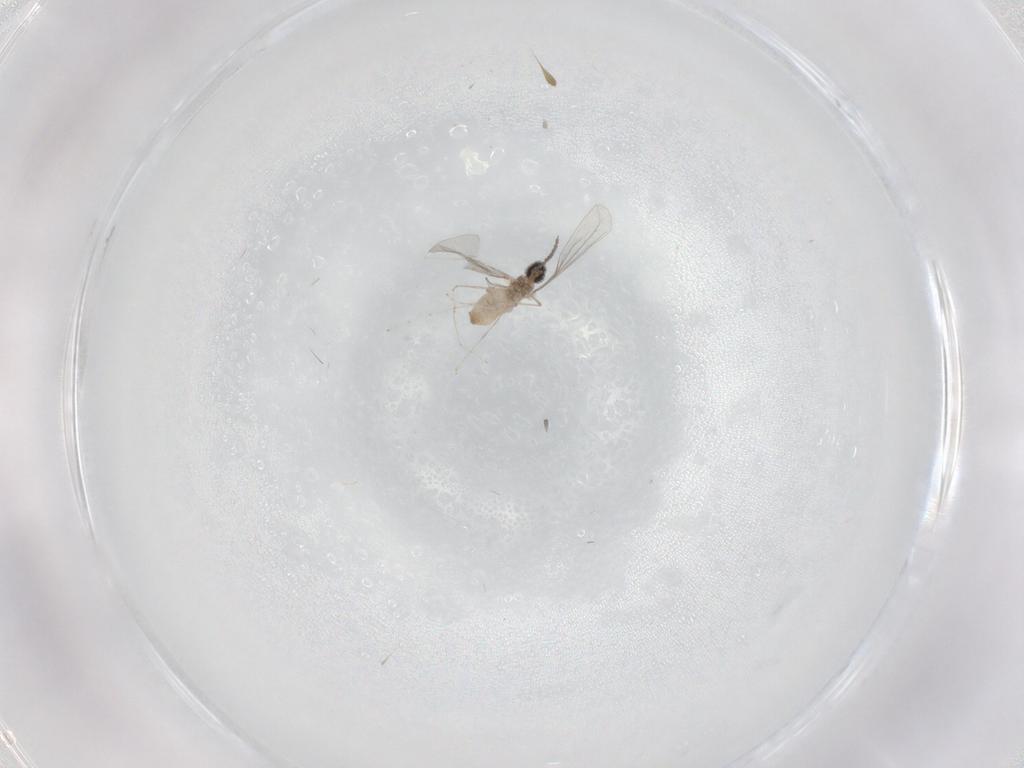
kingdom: Animalia
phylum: Arthropoda
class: Insecta
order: Diptera
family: Cecidomyiidae
